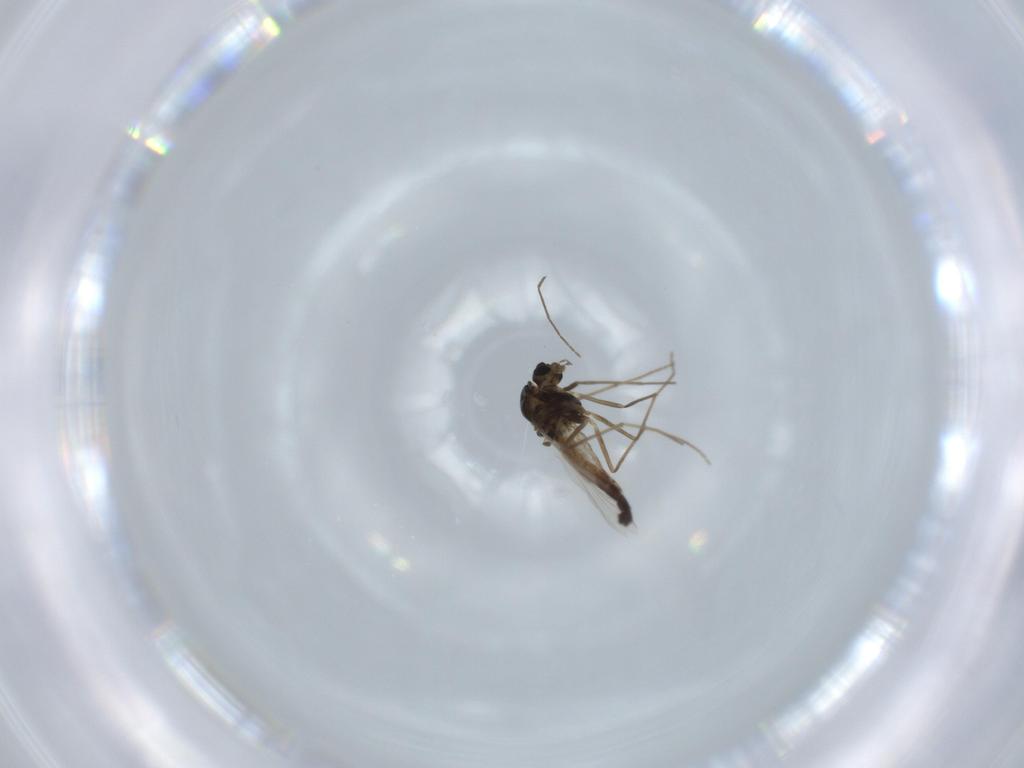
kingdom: Animalia
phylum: Arthropoda
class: Insecta
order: Diptera
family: Chironomidae
